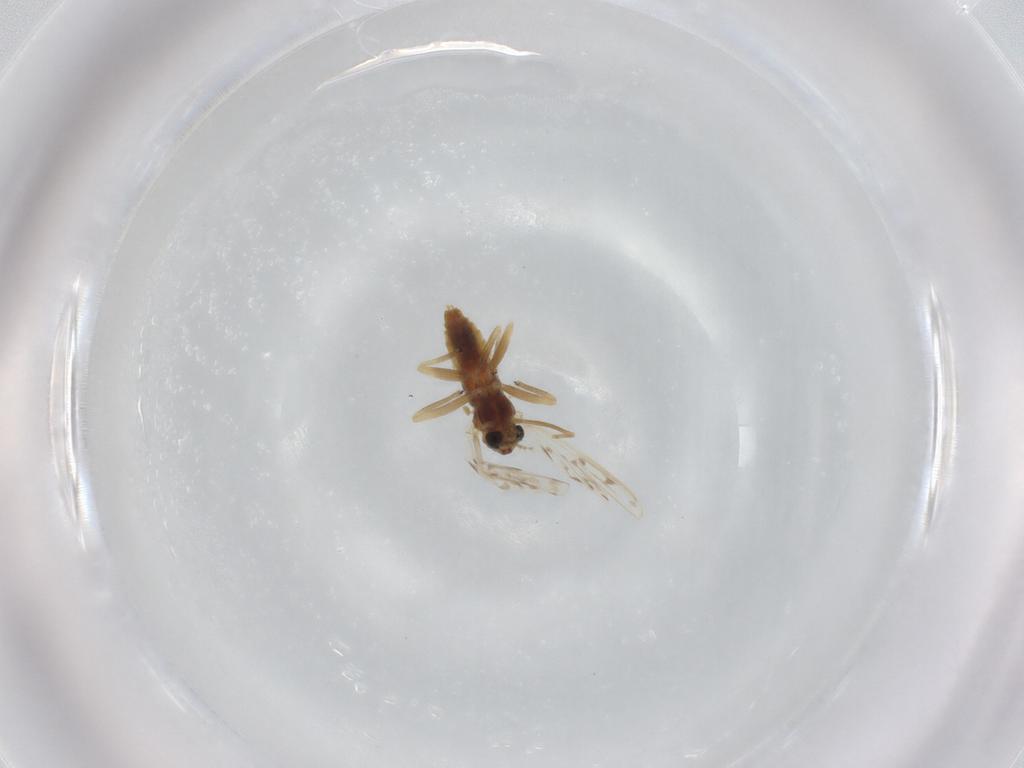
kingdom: Animalia
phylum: Arthropoda
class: Insecta
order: Diptera
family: Chironomidae
